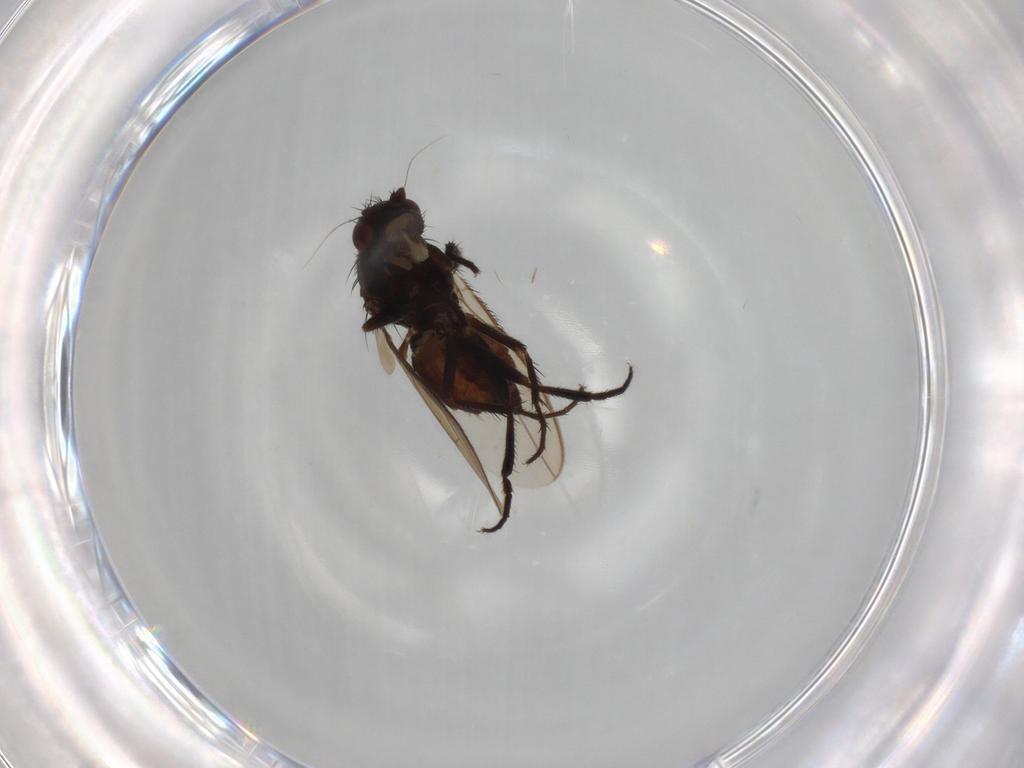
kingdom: Animalia
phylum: Arthropoda
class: Insecta
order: Diptera
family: Sphaeroceridae
